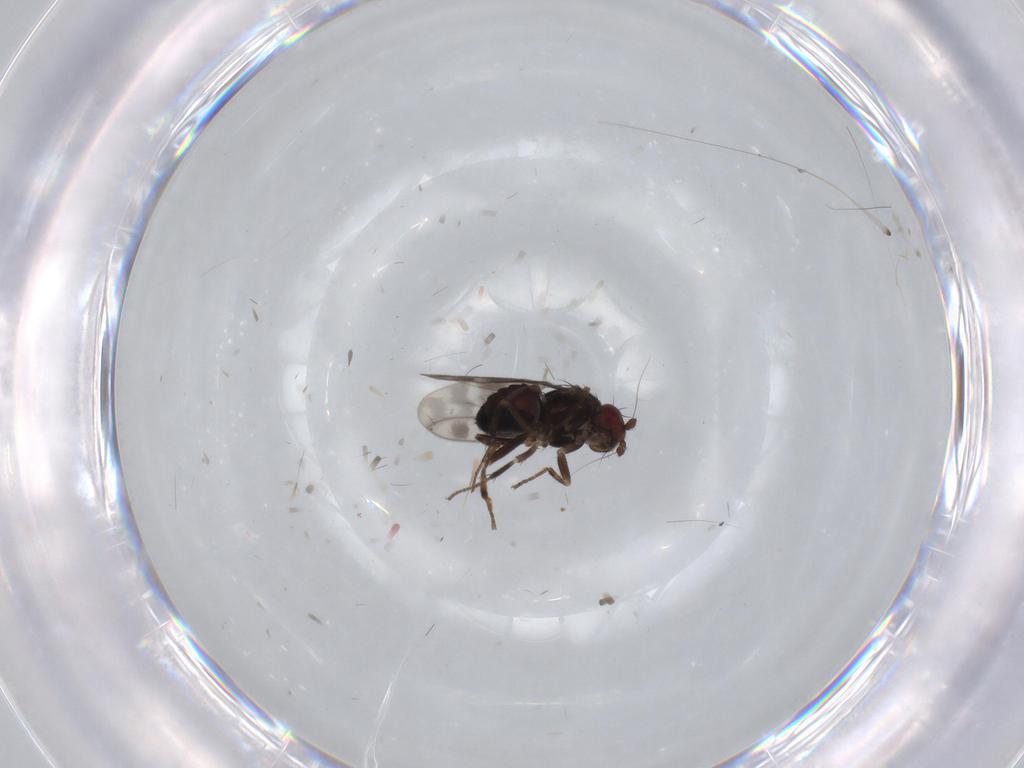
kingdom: Animalia
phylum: Arthropoda
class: Insecta
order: Diptera
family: Sphaeroceridae
